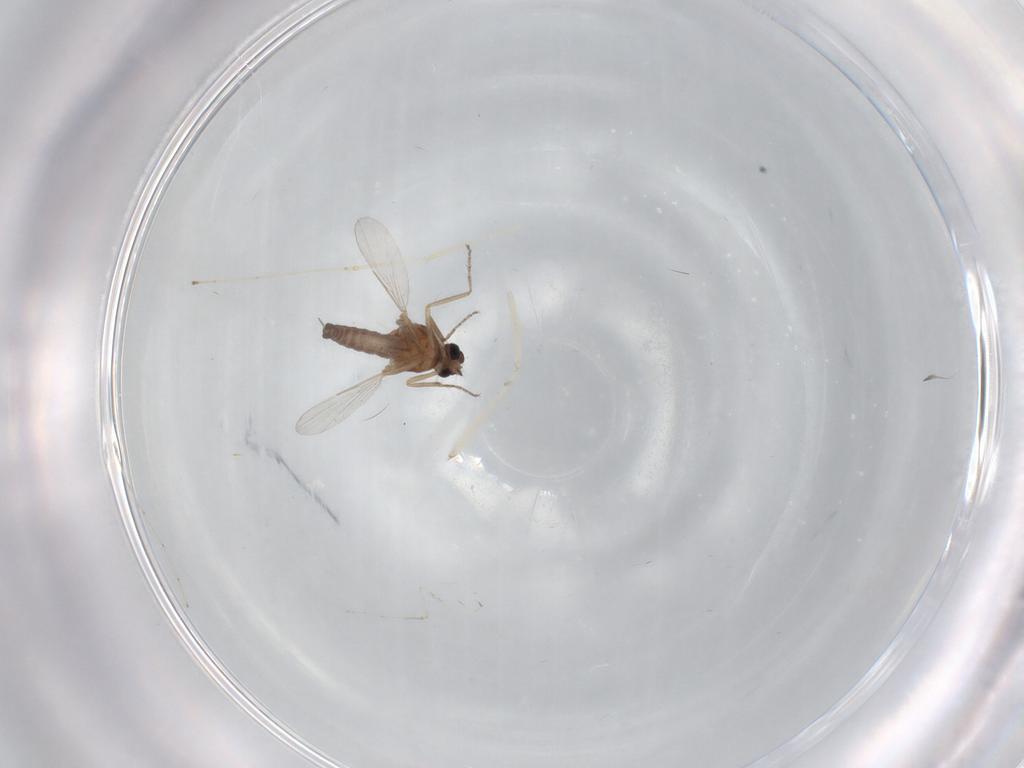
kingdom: Animalia
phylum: Arthropoda
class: Insecta
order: Diptera
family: Ceratopogonidae
